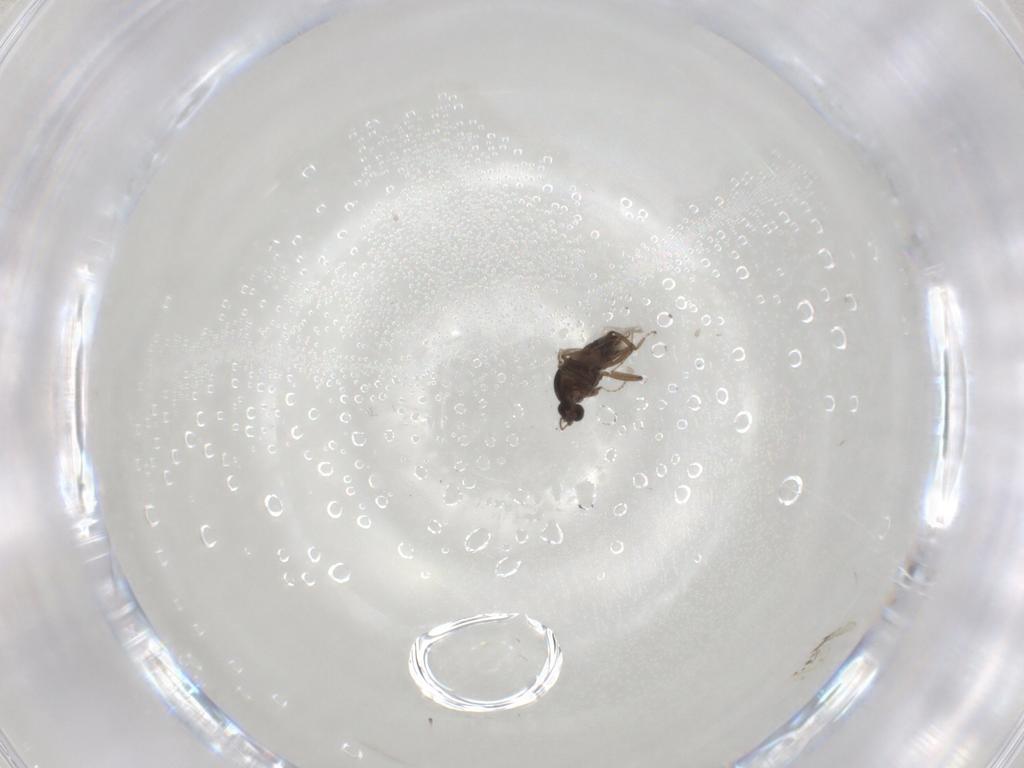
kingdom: Animalia
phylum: Arthropoda
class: Insecta
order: Diptera
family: Ceratopogonidae
